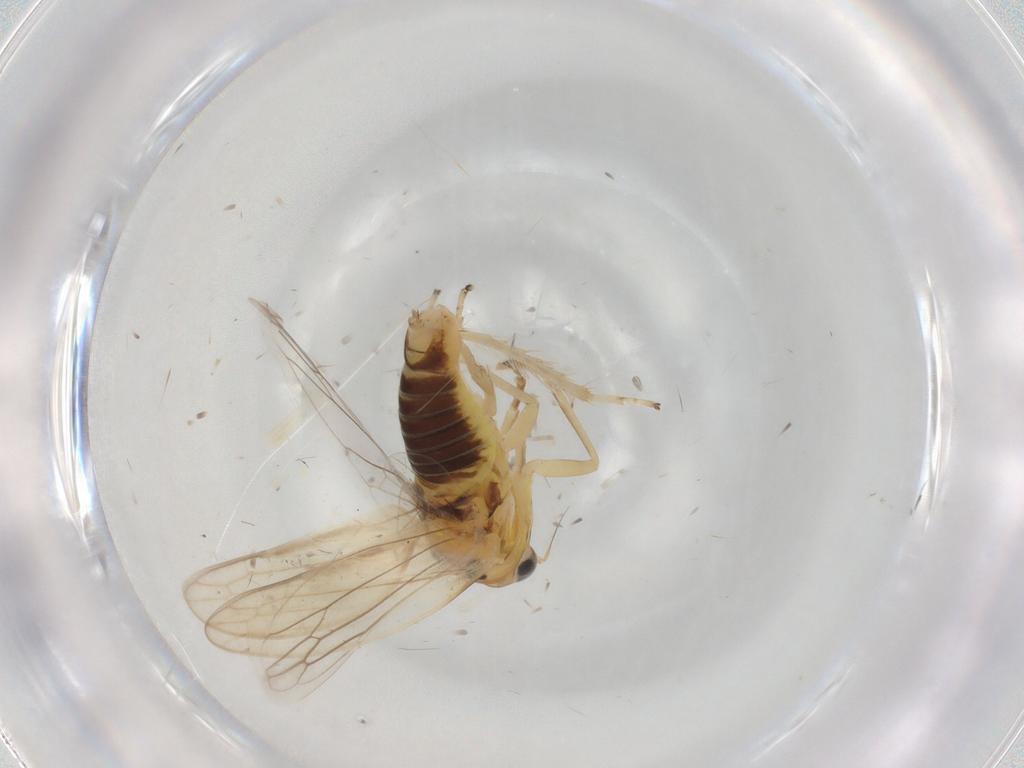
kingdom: Animalia
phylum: Arthropoda
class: Insecta
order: Hemiptera
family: Cicadellidae
